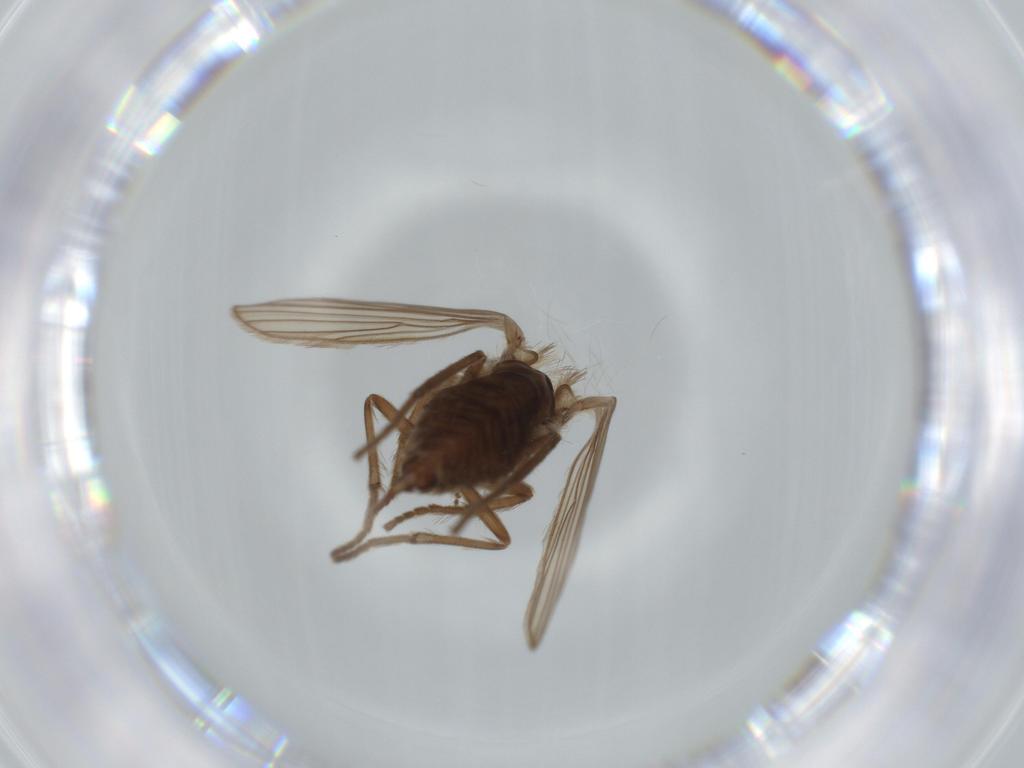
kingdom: Animalia
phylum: Arthropoda
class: Insecta
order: Diptera
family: Psychodidae
